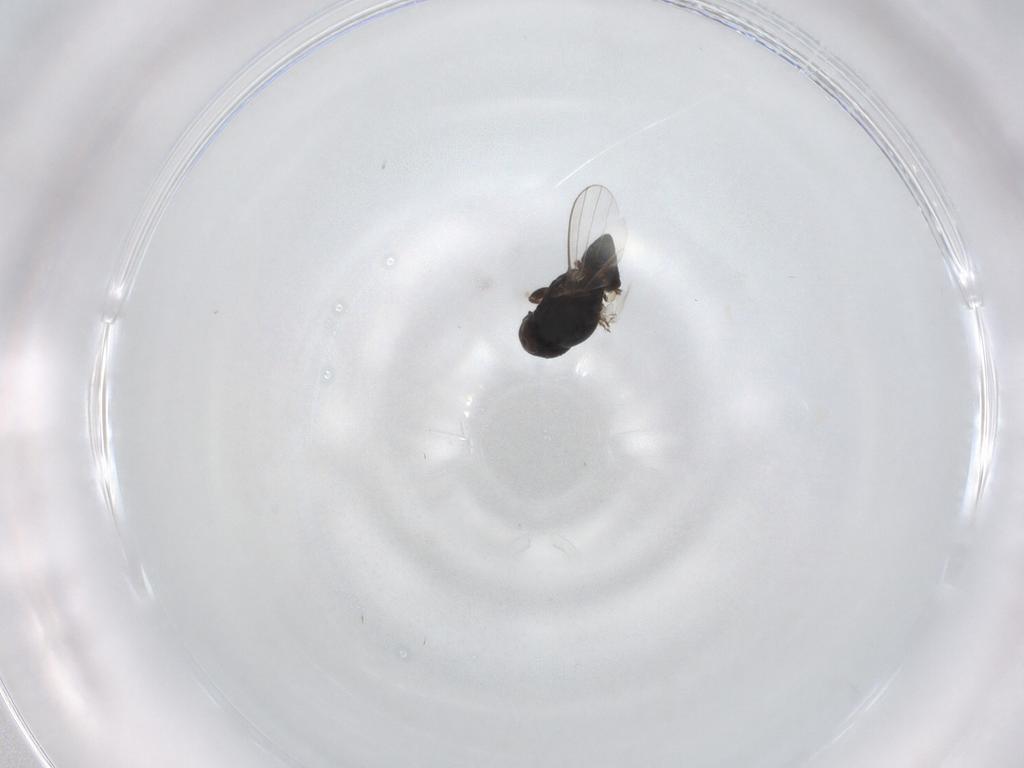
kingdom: Animalia
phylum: Arthropoda
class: Insecta
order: Diptera
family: Milichiidae
